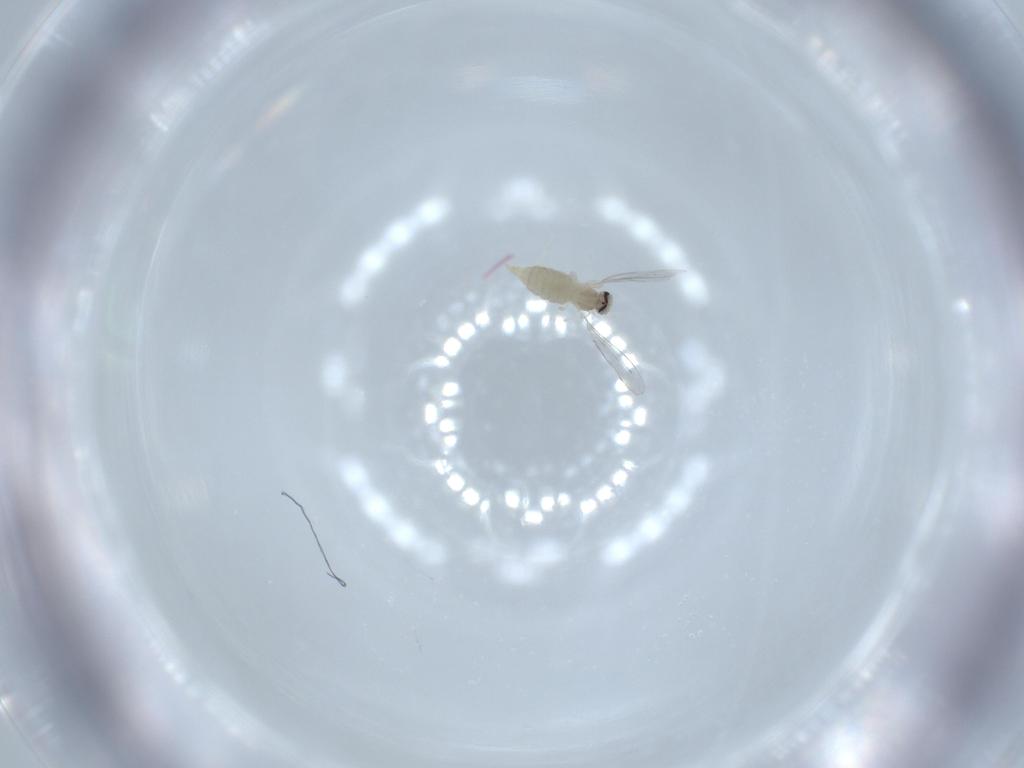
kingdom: Animalia
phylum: Arthropoda
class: Insecta
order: Diptera
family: Cecidomyiidae
